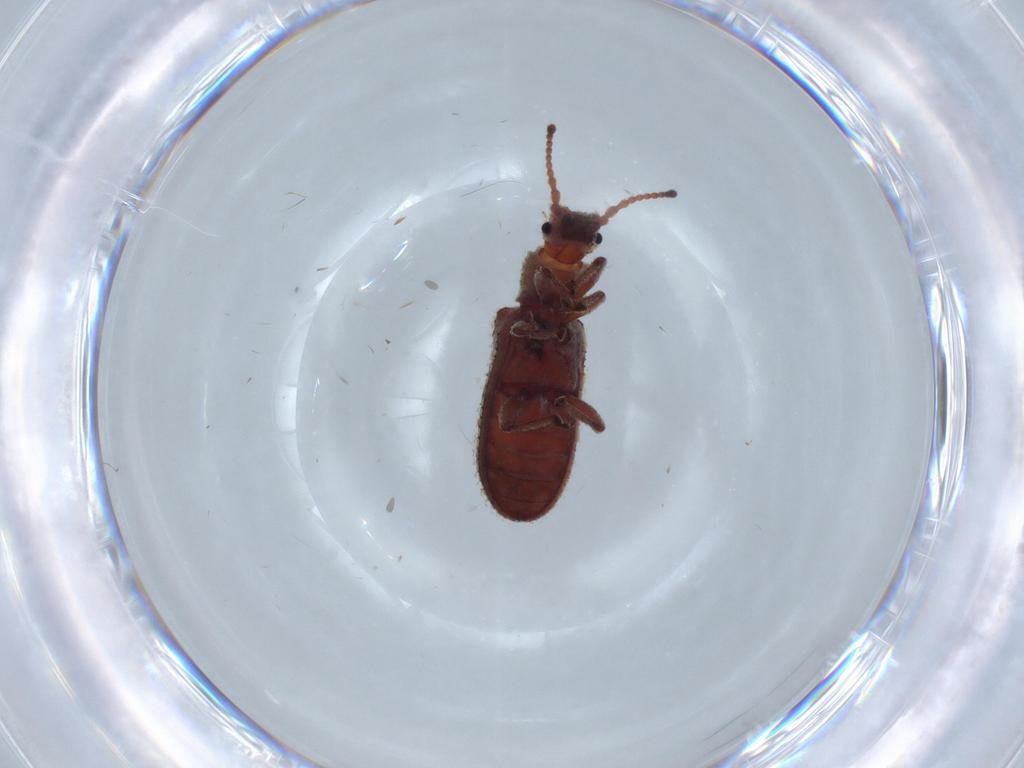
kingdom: Animalia
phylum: Arthropoda
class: Insecta
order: Coleoptera
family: Zopheridae
